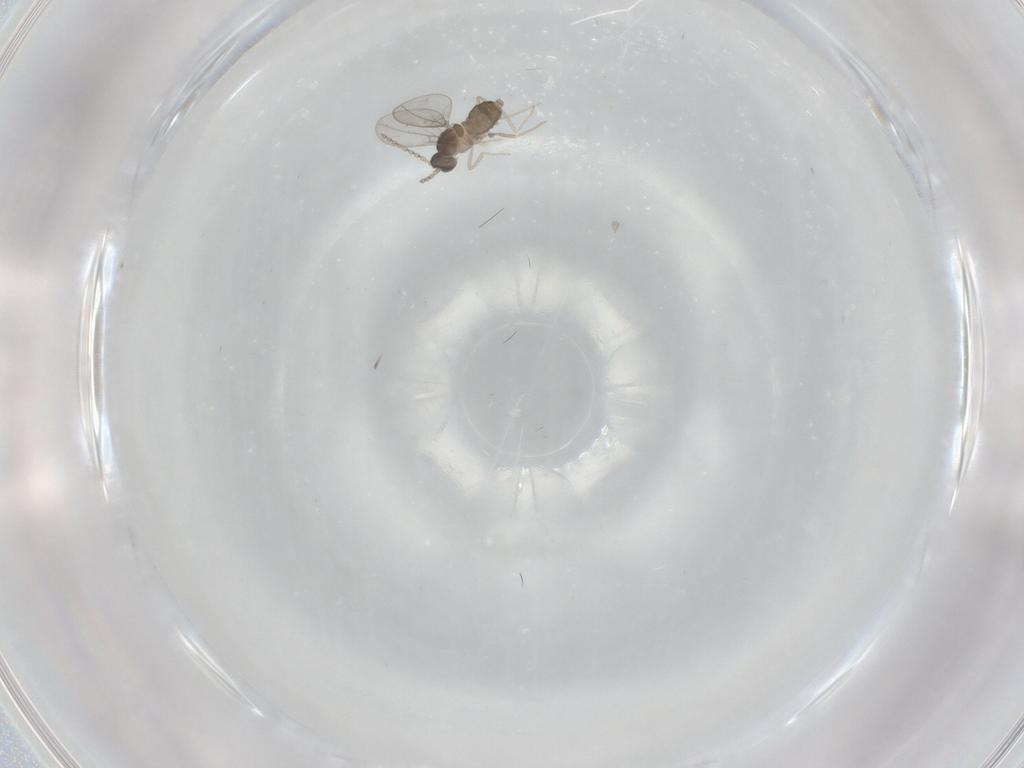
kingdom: Animalia
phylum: Arthropoda
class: Insecta
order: Diptera
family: Cecidomyiidae
